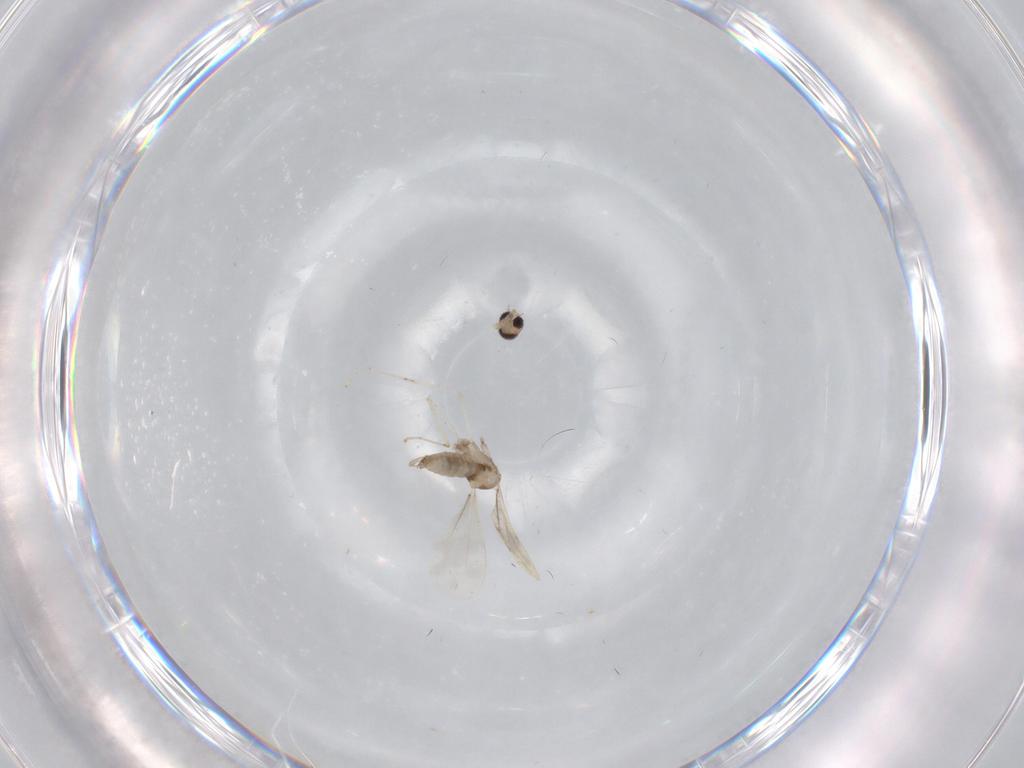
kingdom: Animalia
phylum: Arthropoda
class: Insecta
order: Diptera
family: Cecidomyiidae
